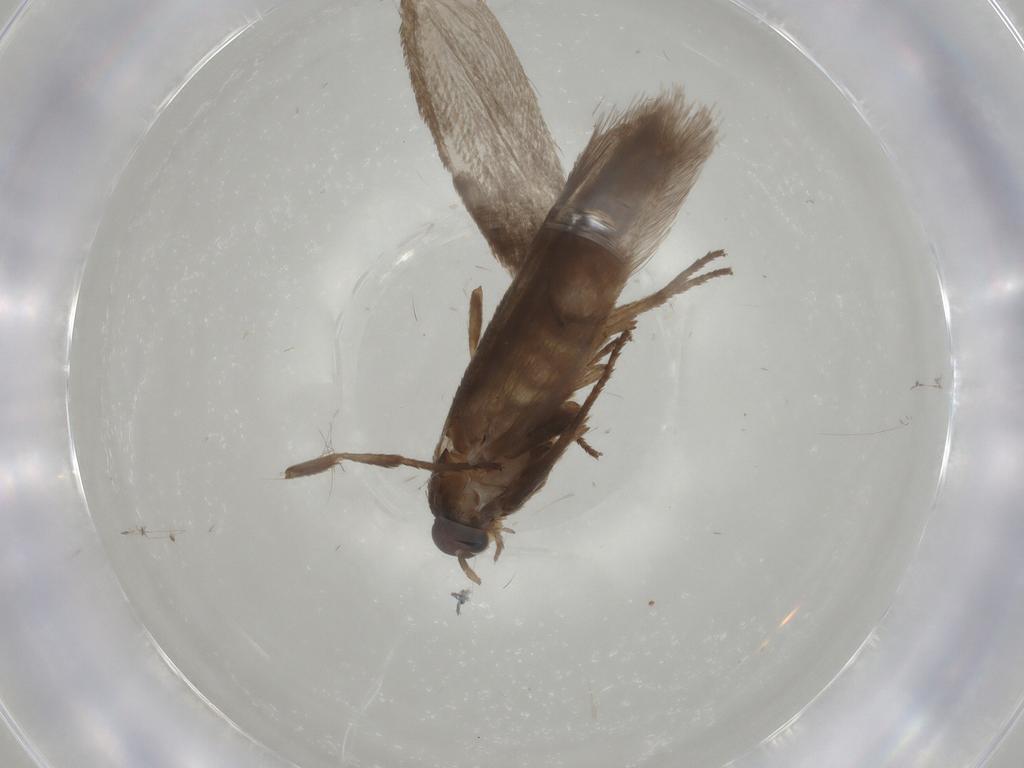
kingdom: Animalia
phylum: Arthropoda
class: Insecta
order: Lepidoptera
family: Limacodidae
